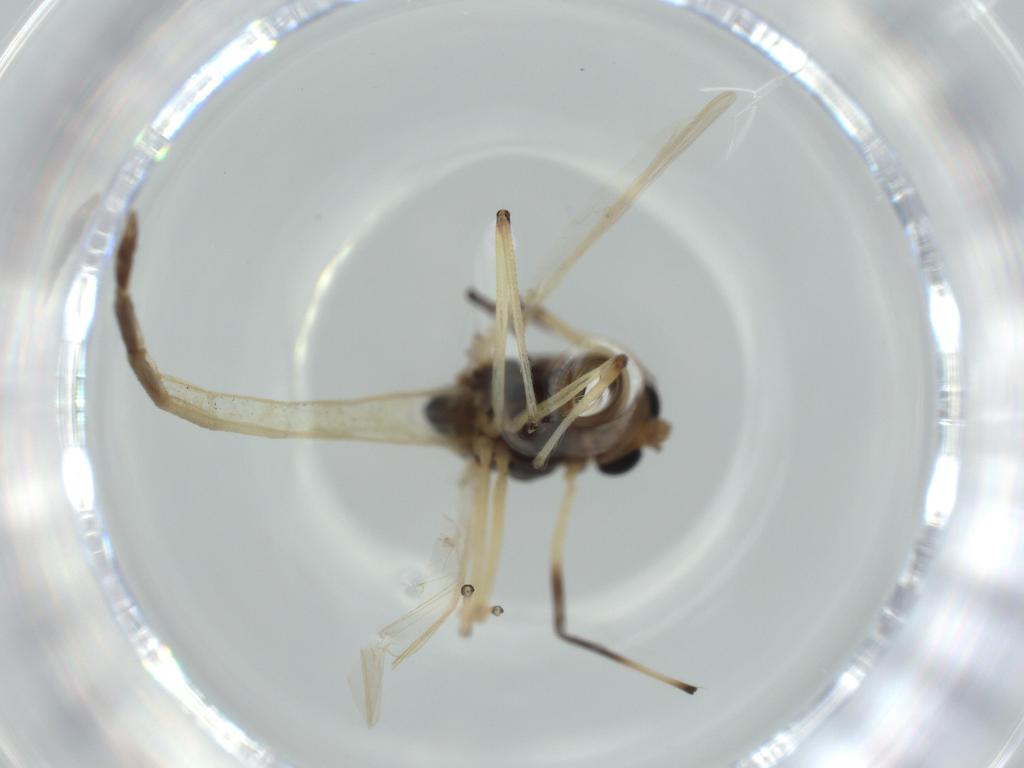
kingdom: Animalia
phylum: Arthropoda
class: Insecta
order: Diptera
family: Chironomidae
